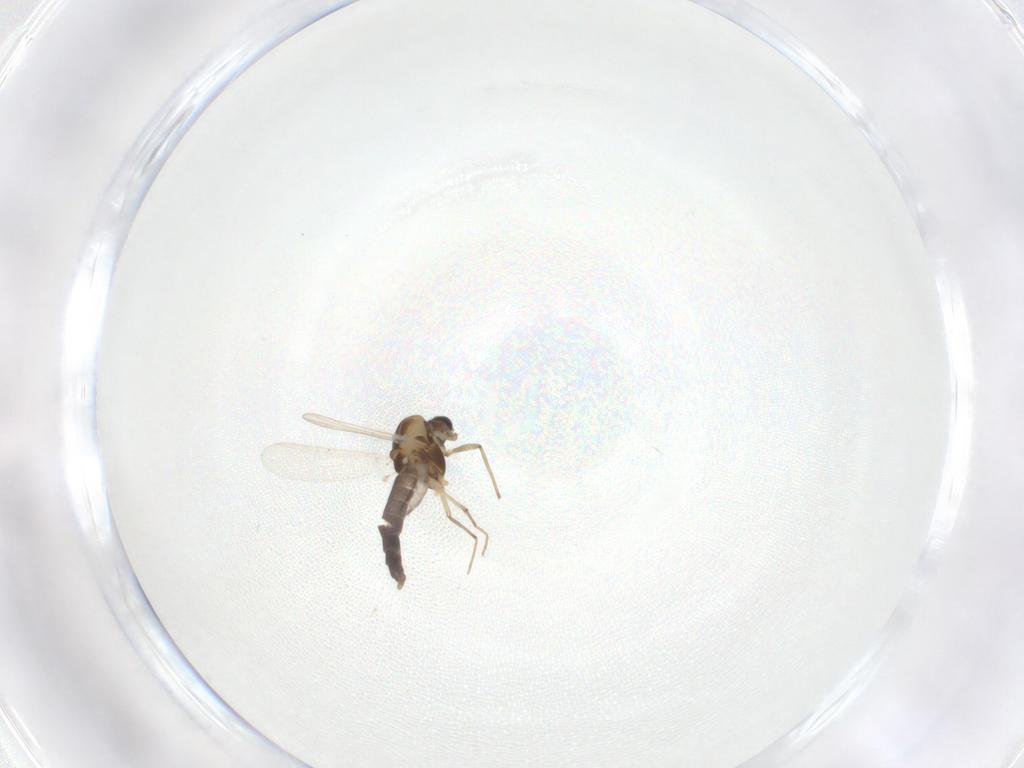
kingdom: Animalia
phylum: Arthropoda
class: Insecta
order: Diptera
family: Chironomidae
